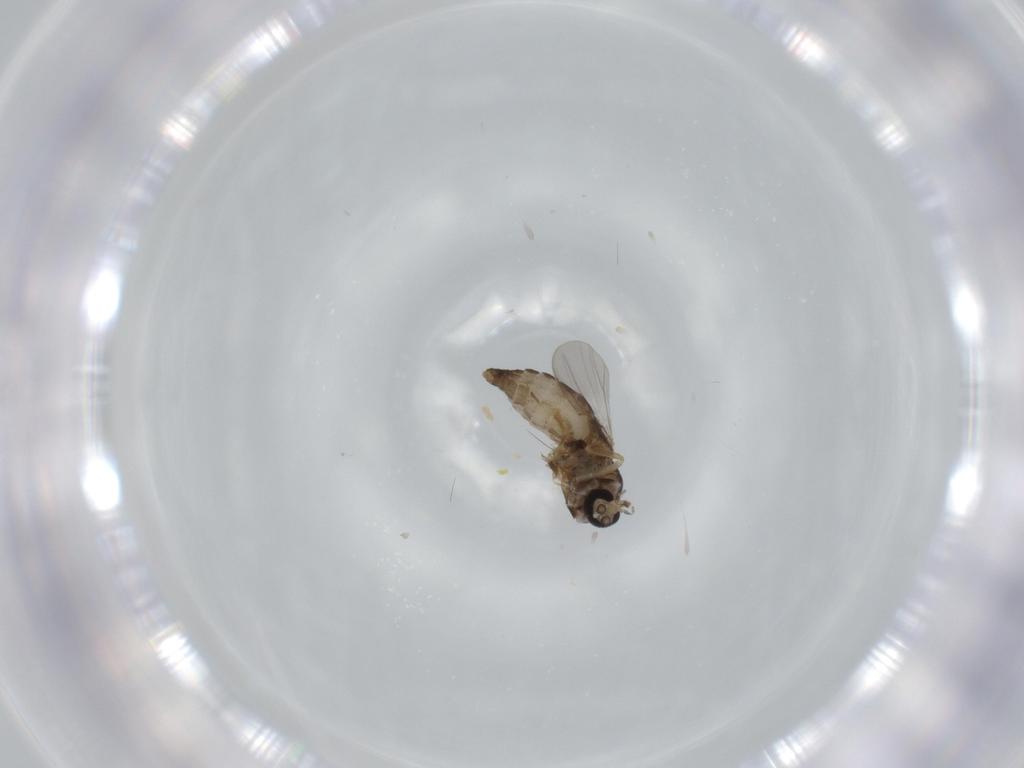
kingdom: Animalia
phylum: Arthropoda
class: Insecta
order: Diptera
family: Ceratopogonidae
